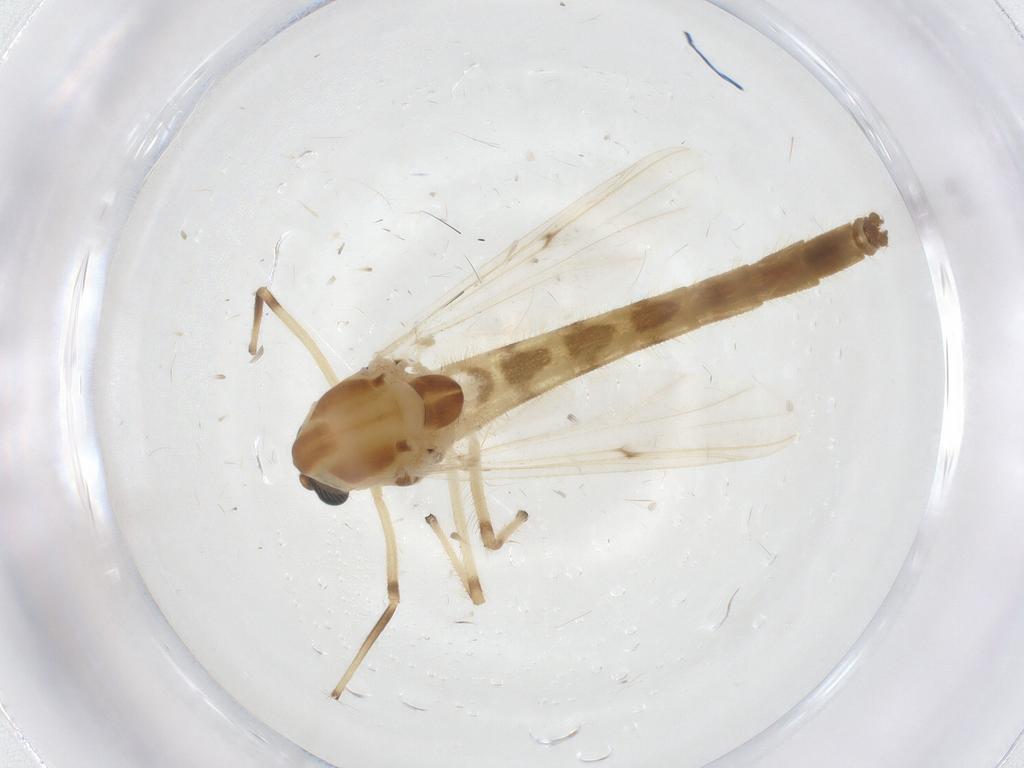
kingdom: Animalia
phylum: Arthropoda
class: Insecta
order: Diptera
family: Chironomidae
